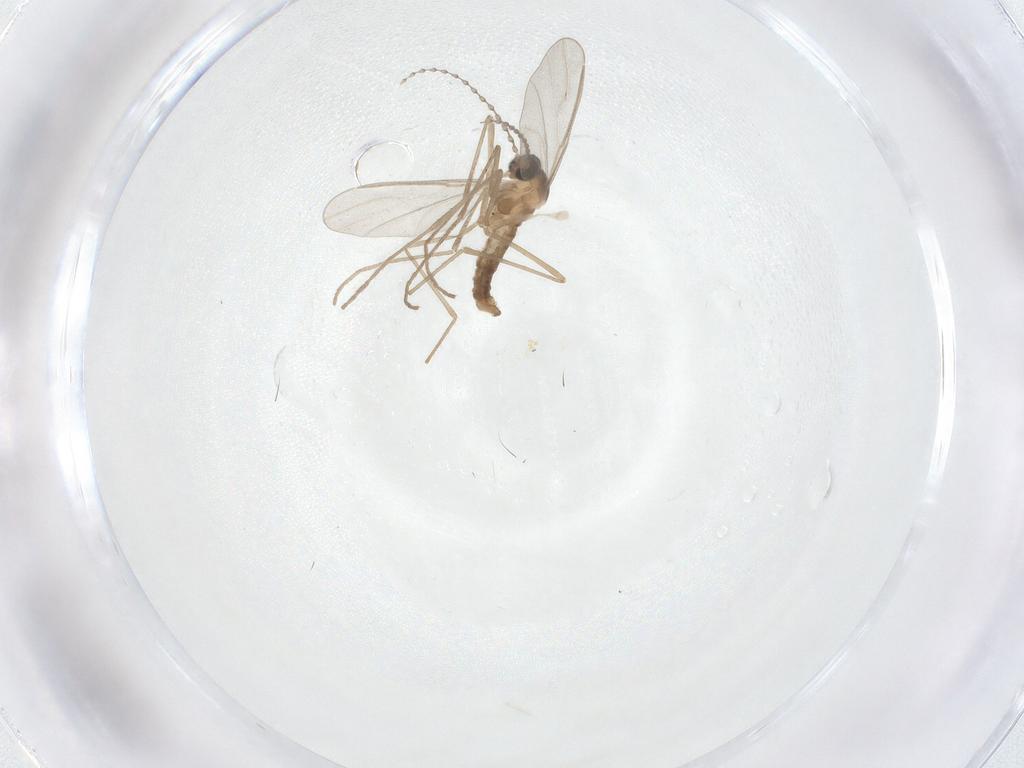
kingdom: Animalia
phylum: Arthropoda
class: Insecta
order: Diptera
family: Cecidomyiidae
